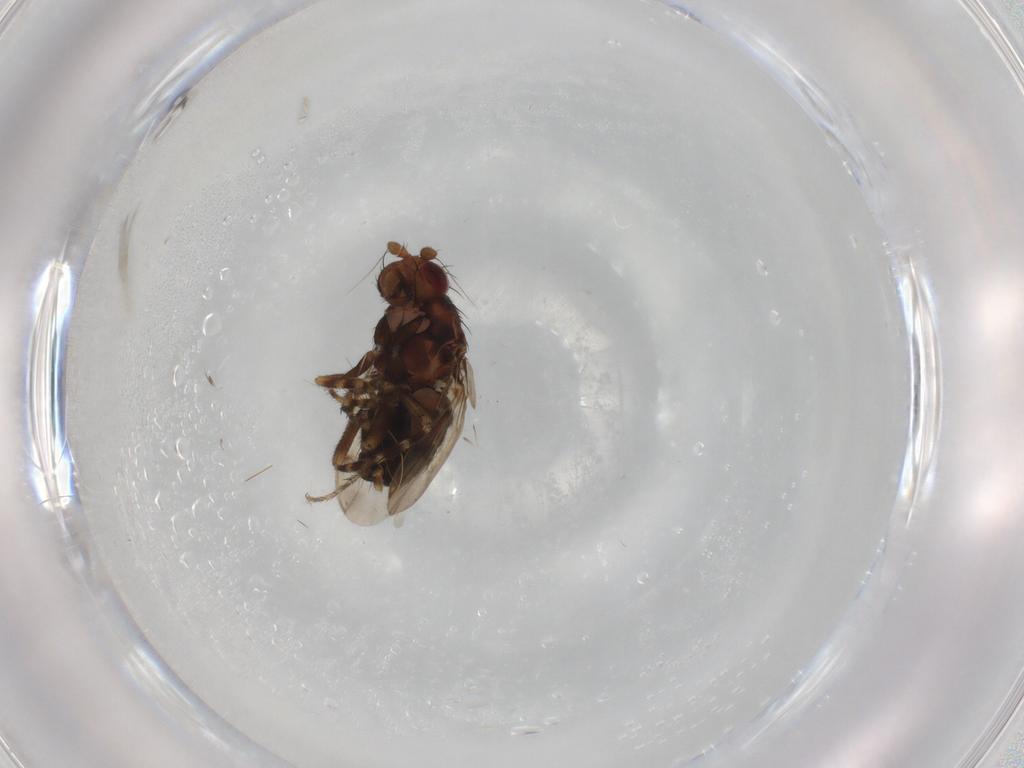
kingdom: Animalia
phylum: Arthropoda
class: Insecta
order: Diptera
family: Sphaeroceridae
